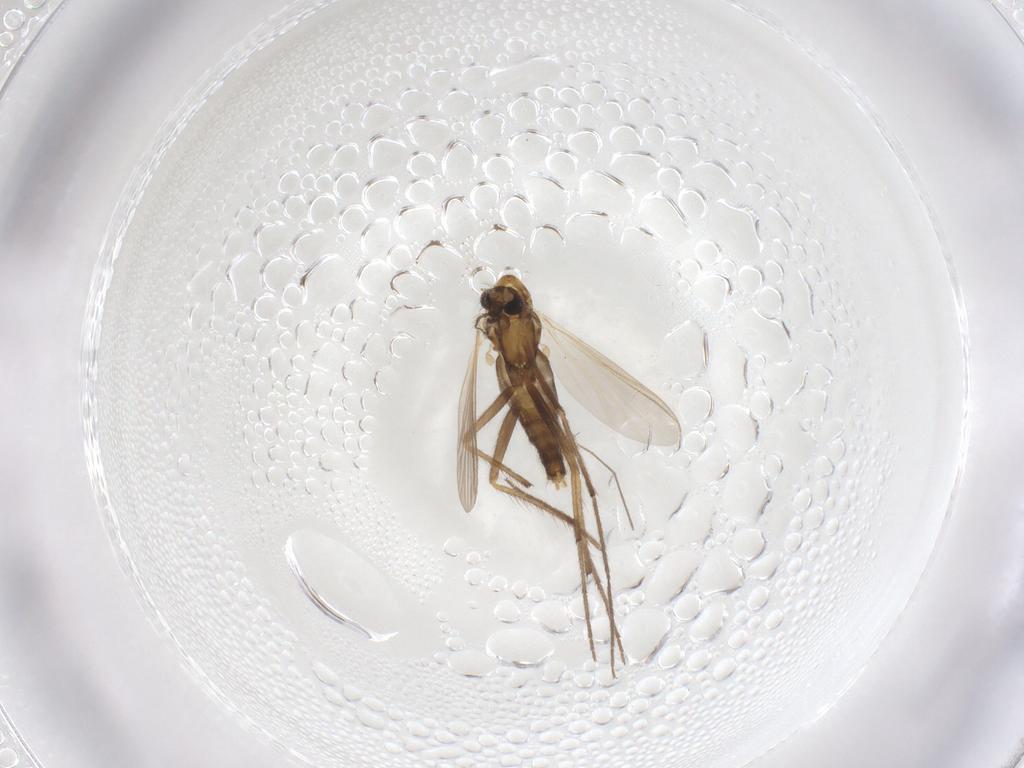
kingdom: Animalia
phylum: Arthropoda
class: Insecta
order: Diptera
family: Chironomidae
